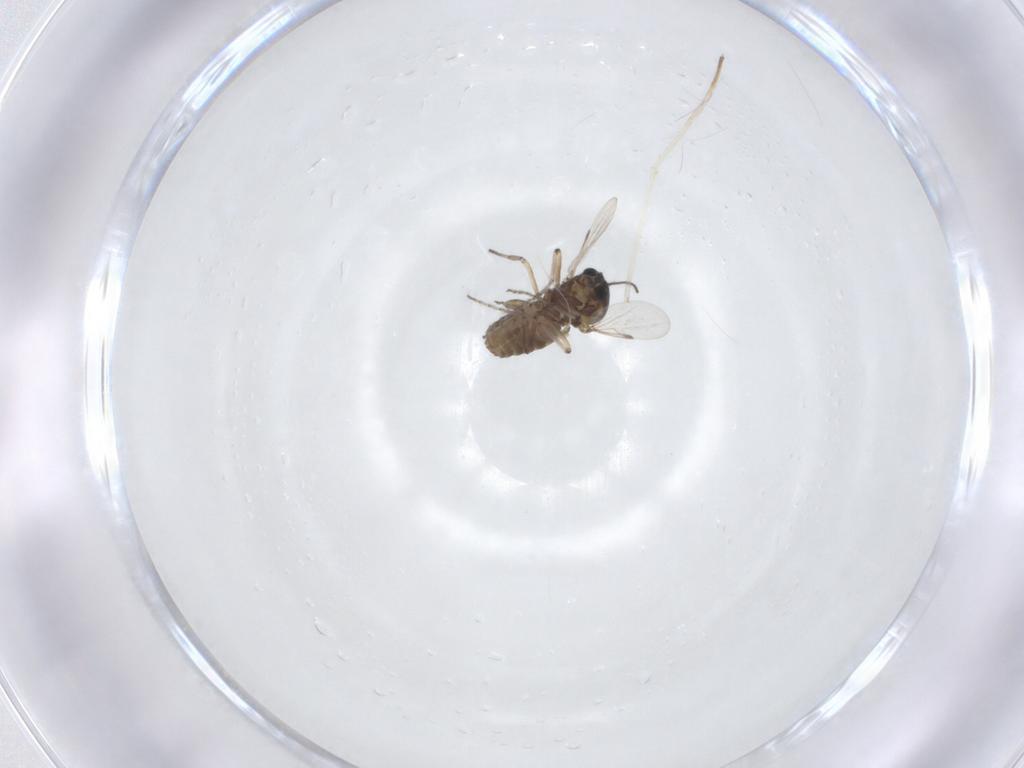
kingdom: Animalia
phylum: Arthropoda
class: Insecta
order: Diptera
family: Ceratopogonidae
